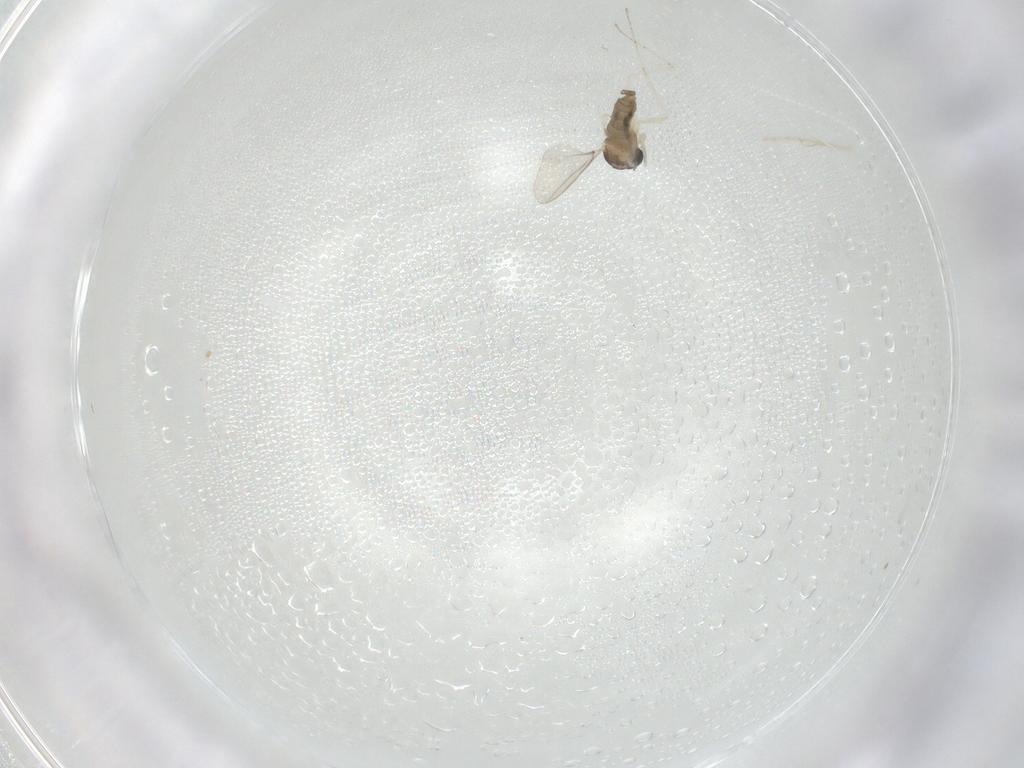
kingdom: Animalia
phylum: Arthropoda
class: Insecta
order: Diptera
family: Cecidomyiidae
